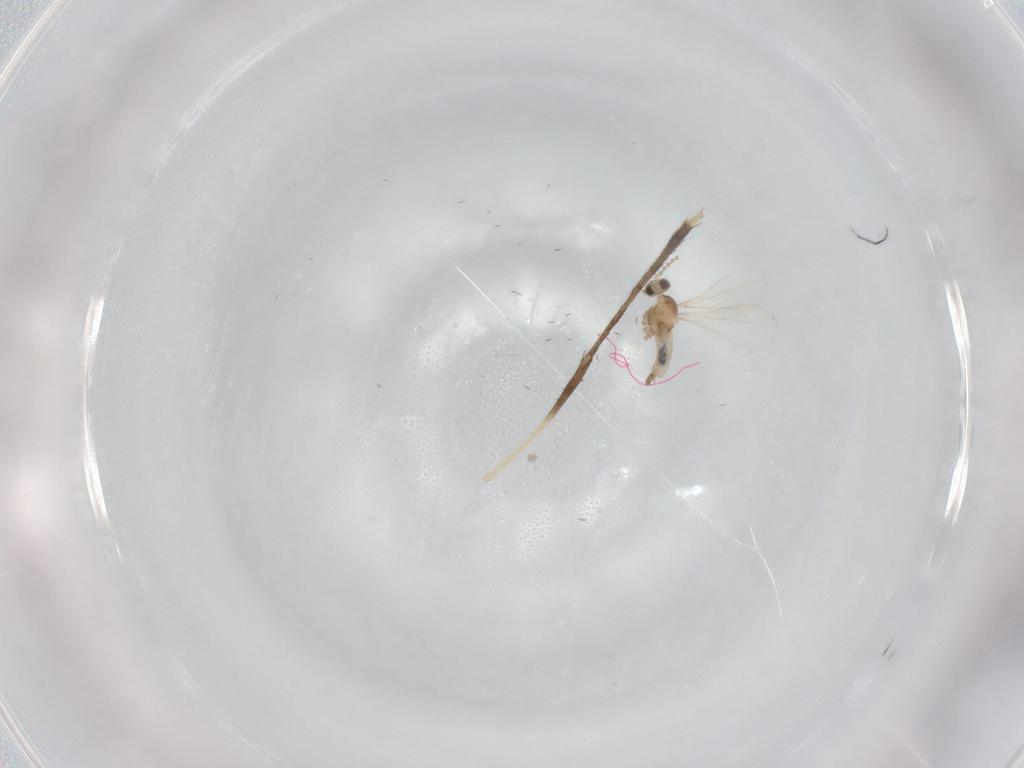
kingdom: Animalia
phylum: Arthropoda
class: Insecta
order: Diptera
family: Cecidomyiidae
